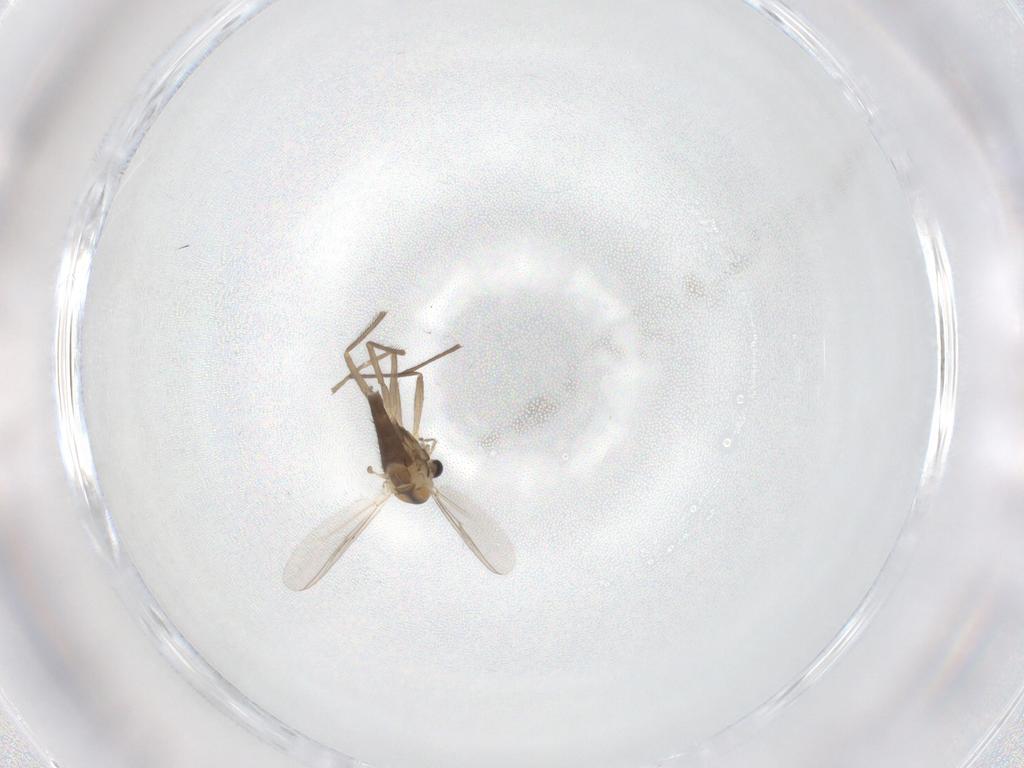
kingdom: Animalia
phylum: Arthropoda
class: Insecta
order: Diptera
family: Chironomidae
